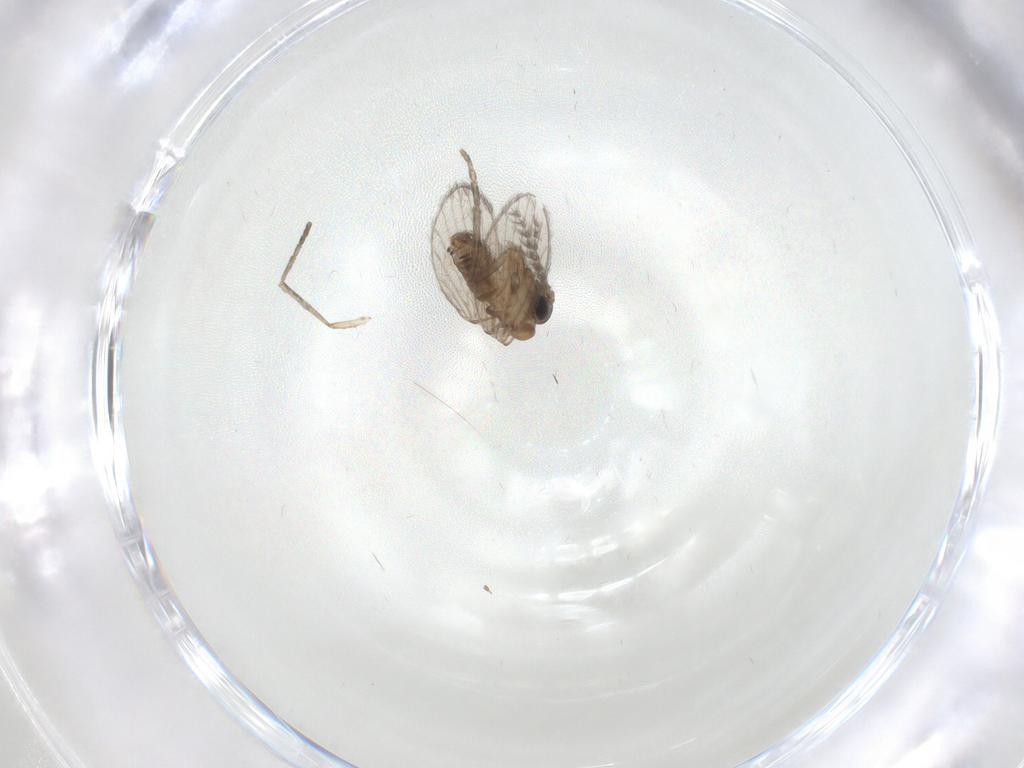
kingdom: Animalia
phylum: Arthropoda
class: Insecta
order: Diptera
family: Psychodidae
